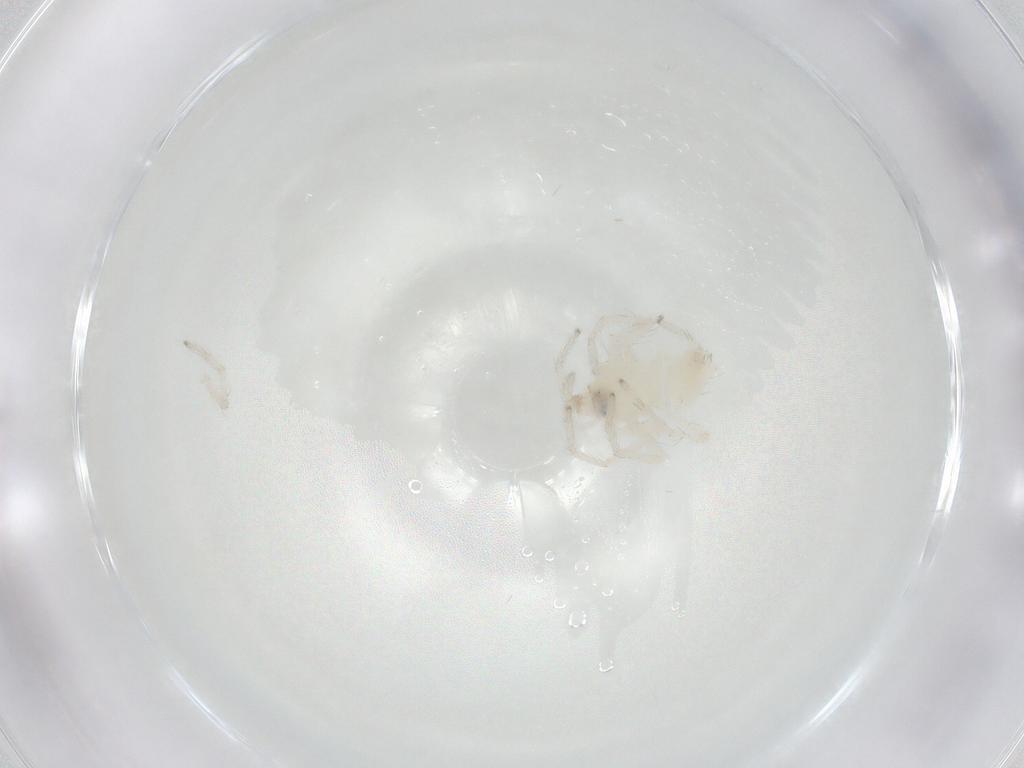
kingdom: Animalia
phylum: Arthropoda
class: Arachnida
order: Araneae
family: Anyphaenidae
